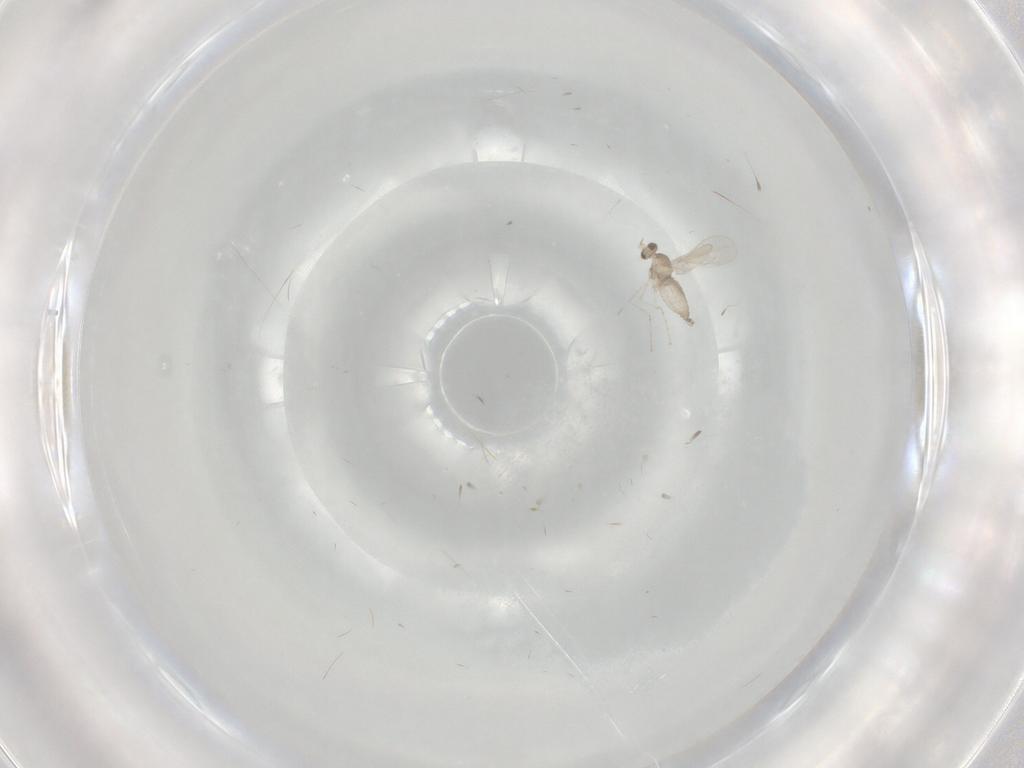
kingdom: Animalia
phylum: Arthropoda
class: Insecta
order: Diptera
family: Cecidomyiidae
